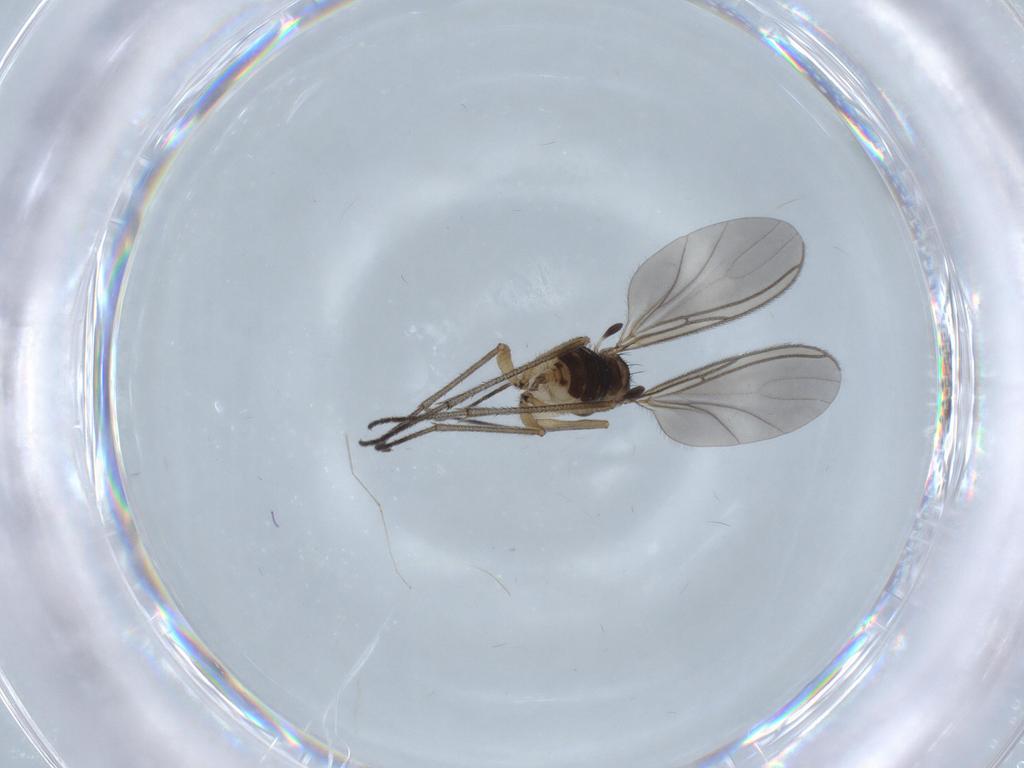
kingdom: Animalia
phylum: Arthropoda
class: Insecta
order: Diptera
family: Sciaridae
